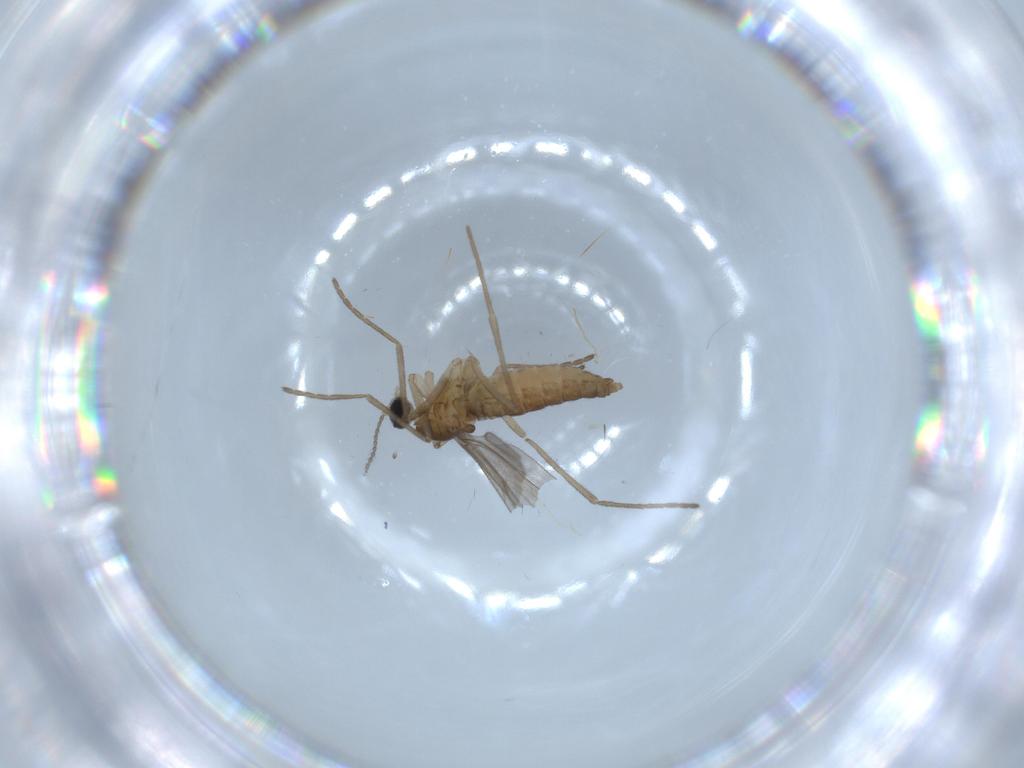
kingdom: Animalia
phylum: Arthropoda
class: Insecta
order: Diptera
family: Cecidomyiidae
